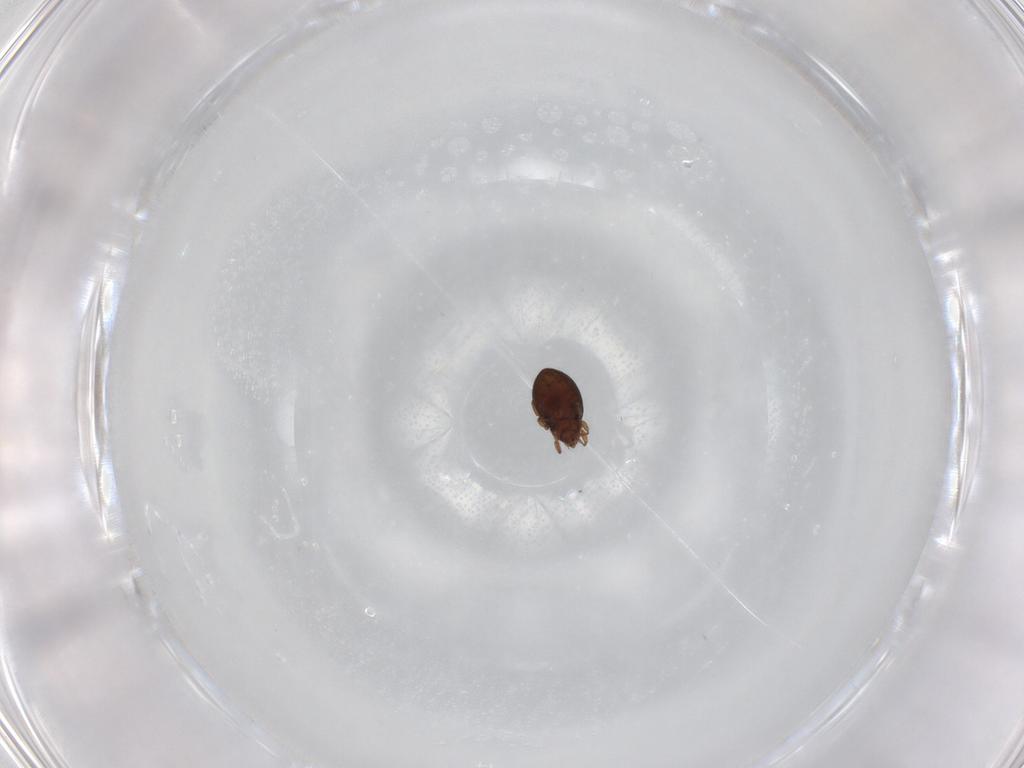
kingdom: Animalia
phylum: Arthropoda
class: Arachnida
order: Sarcoptiformes
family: Oribatulidae
